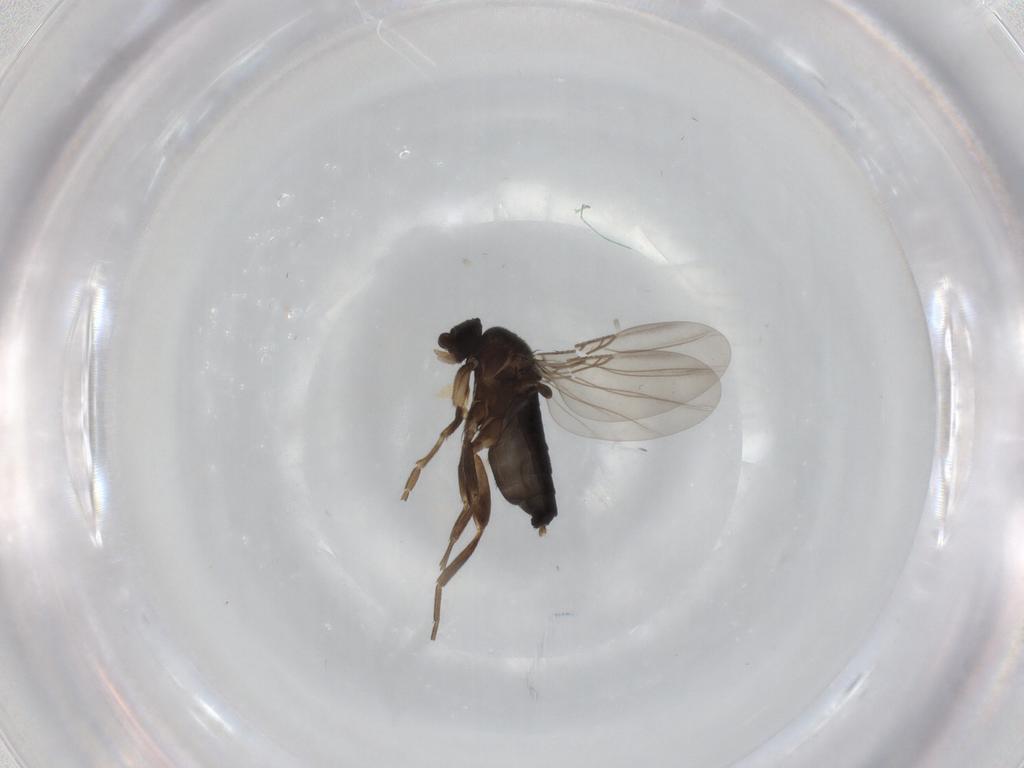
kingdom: Animalia
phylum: Arthropoda
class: Insecta
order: Diptera
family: Phoridae
